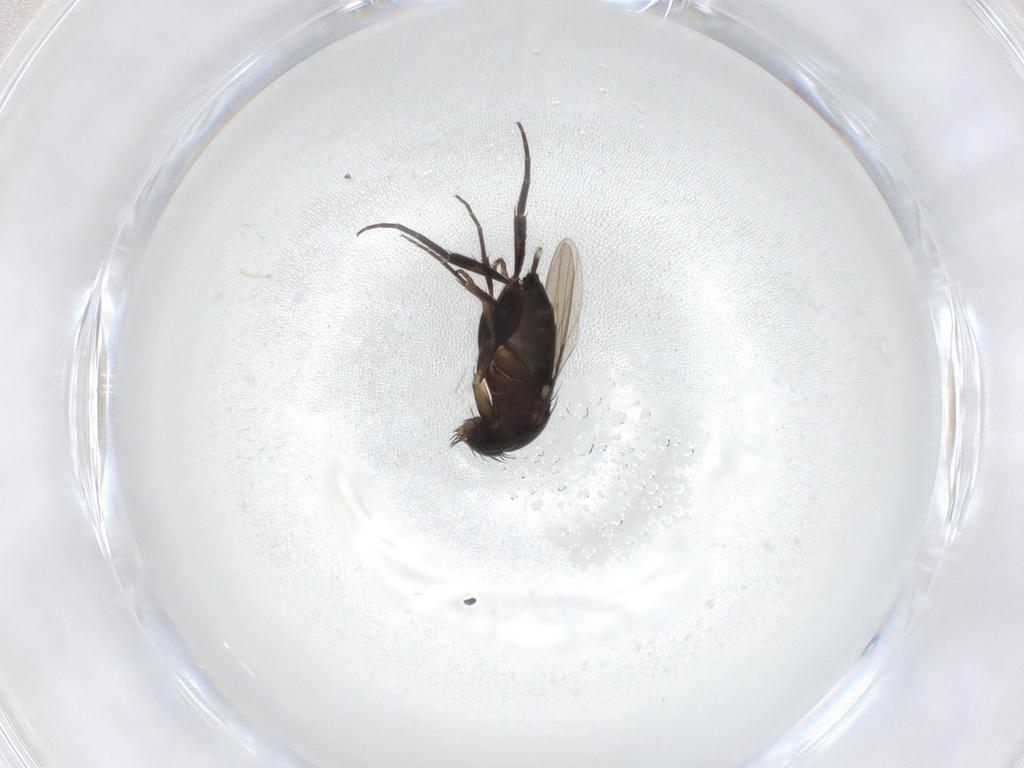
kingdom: Animalia
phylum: Arthropoda
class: Insecta
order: Diptera
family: Phoridae
